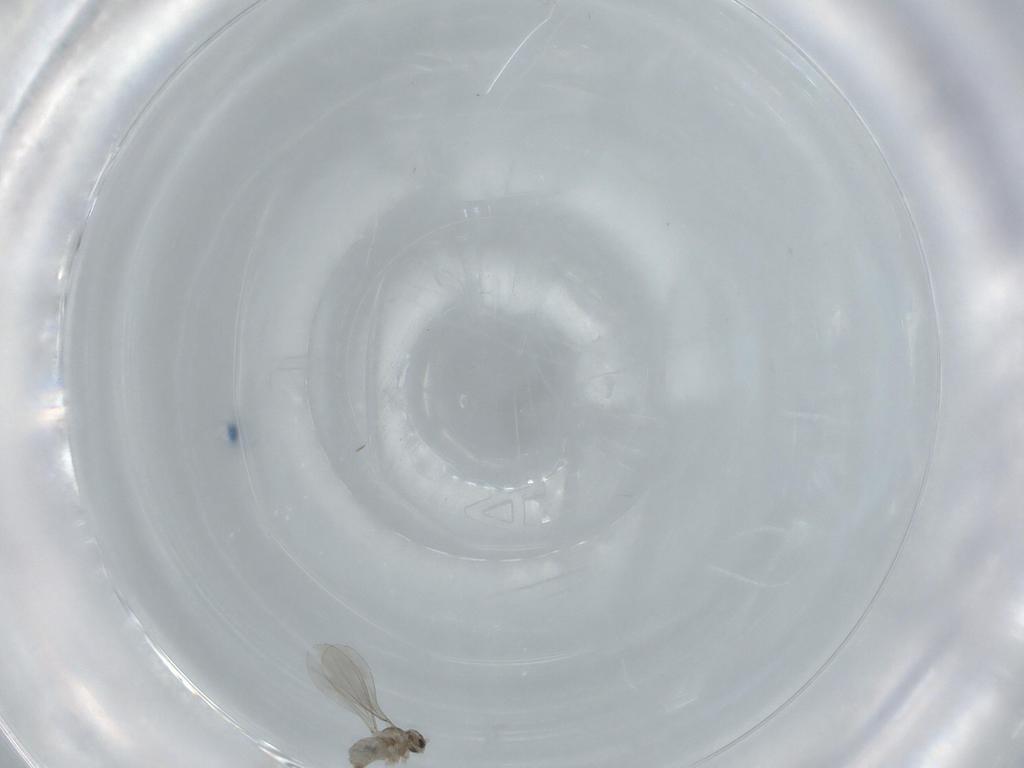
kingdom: Animalia
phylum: Arthropoda
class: Insecta
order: Diptera
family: Cecidomyiidae
